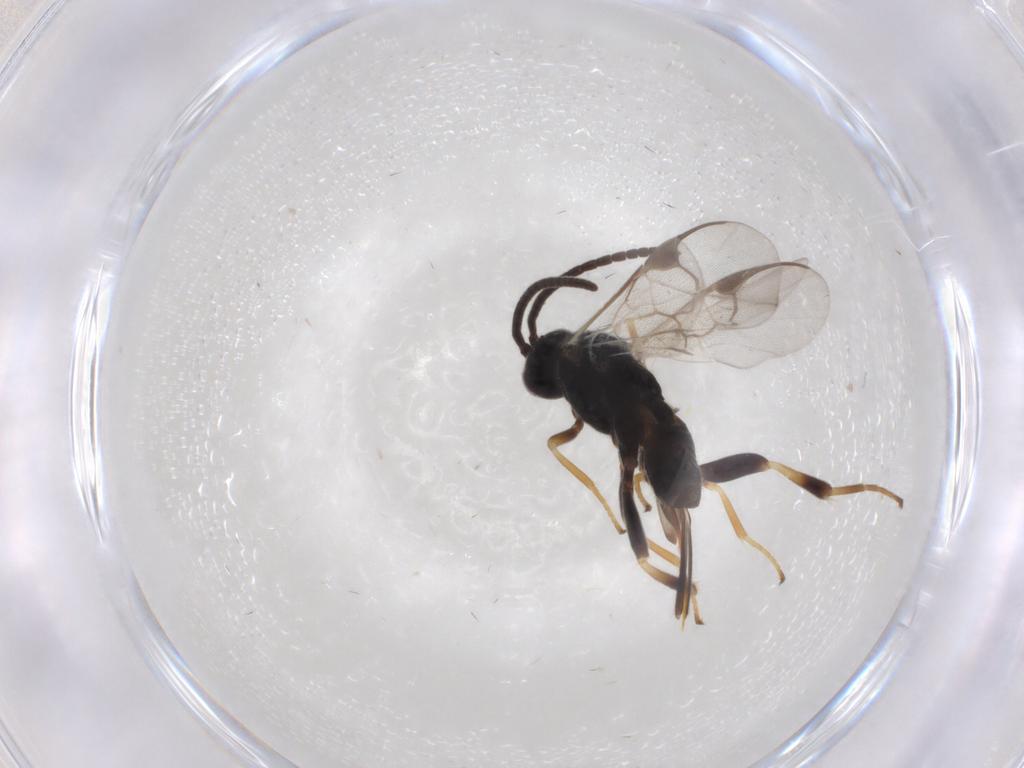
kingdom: Animalia
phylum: Arthropoda
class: Insecta
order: Hymenoptera
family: Braconidae
